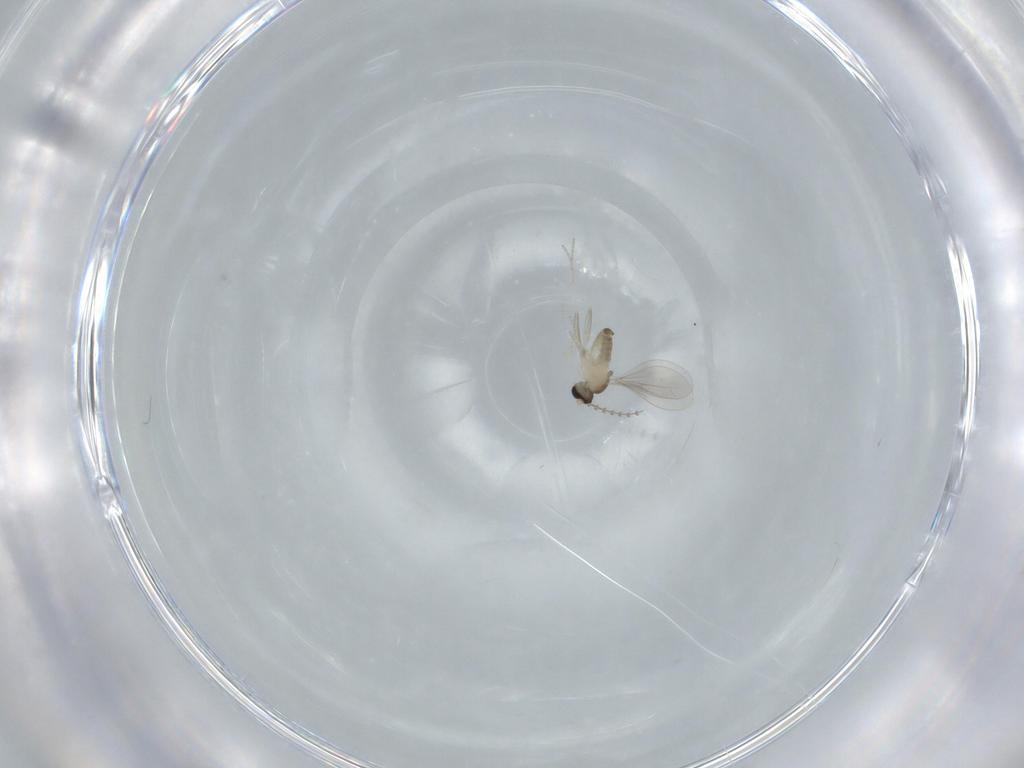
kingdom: Animalia
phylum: Arthropoda
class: Insecta
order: Diptera
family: Cecidomyiidae
